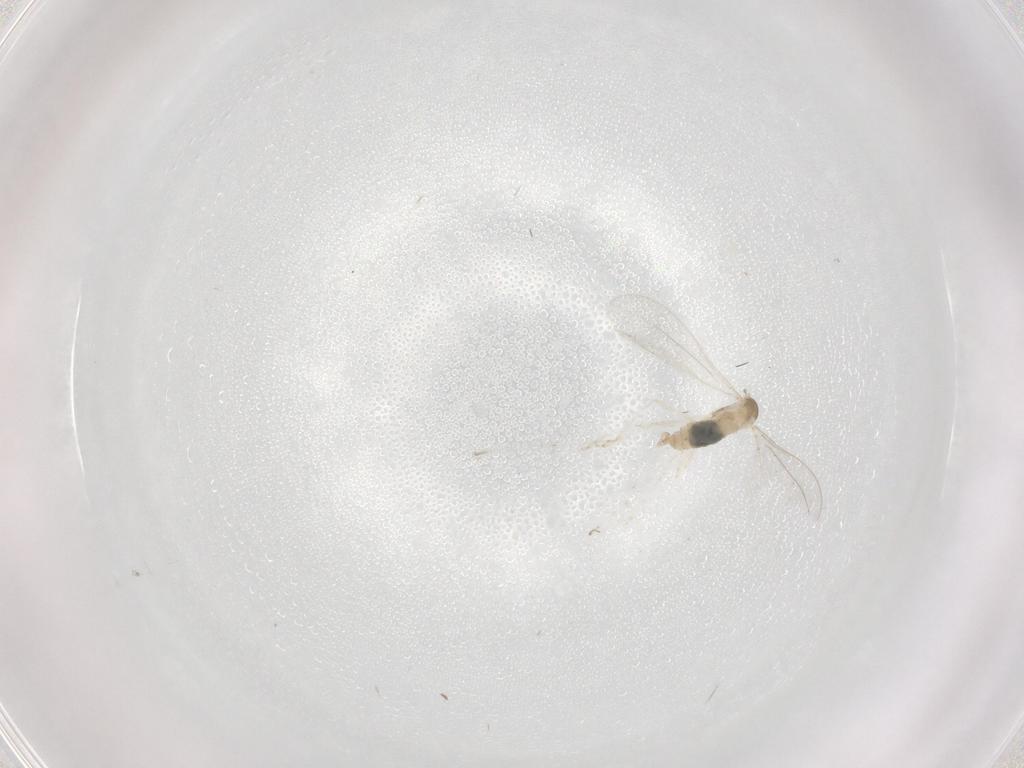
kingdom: Animalia
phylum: Arthropoda
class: Insecta
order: Diptera
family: Cecidomyiidae
